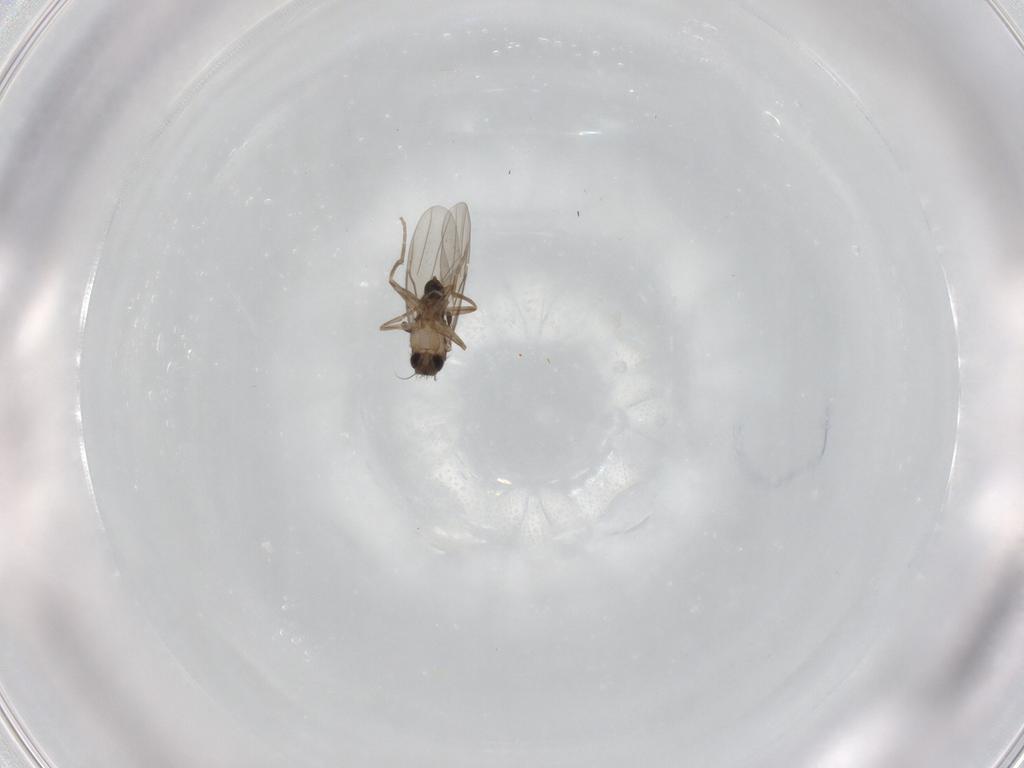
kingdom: Animalia
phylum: Arthropoda
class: Insecta
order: Diptera
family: Phoridae
